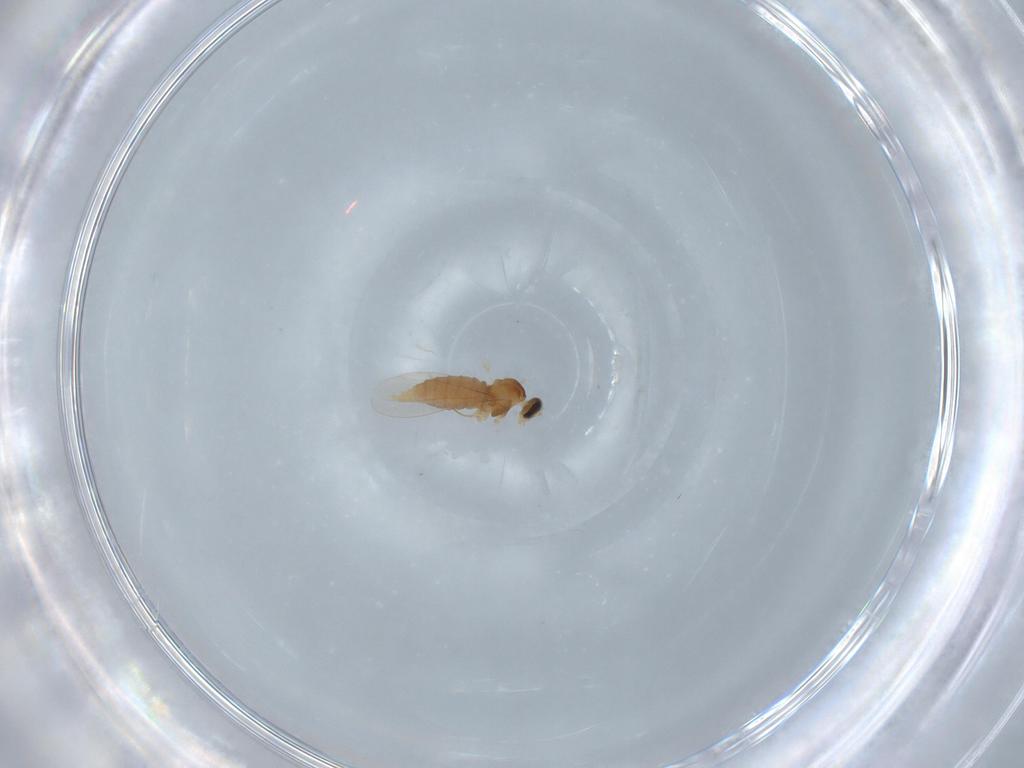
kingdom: Animalia
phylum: Arthropoda
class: Insecta
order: Diptera
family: Cecidomyiidae
